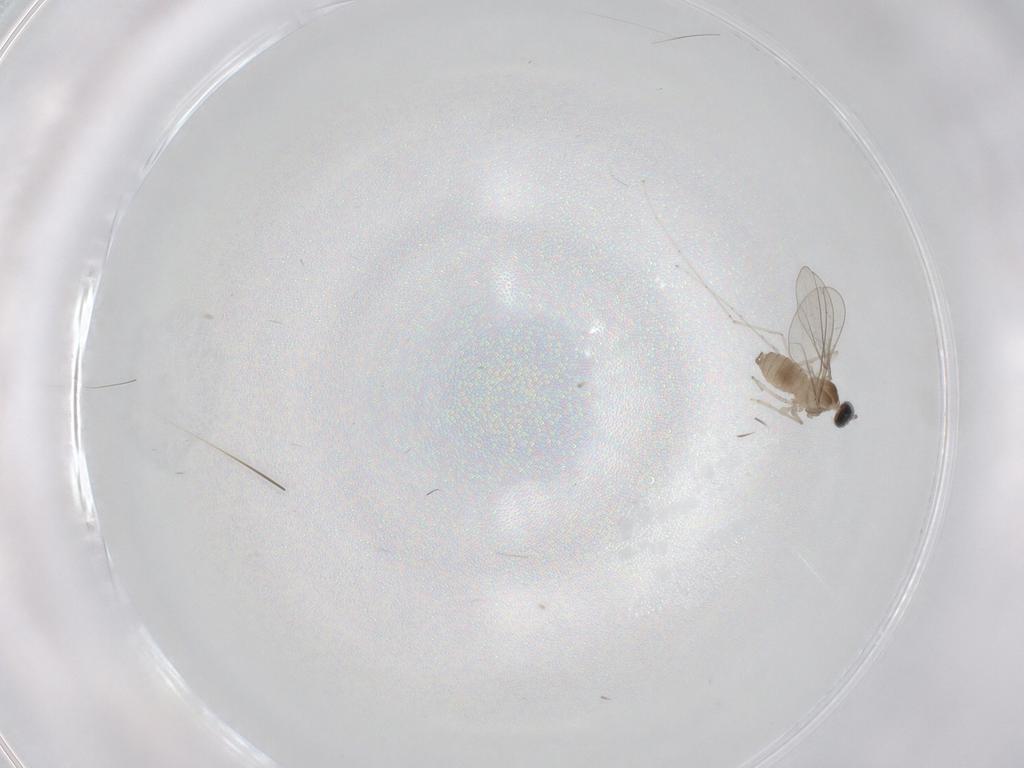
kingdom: Animalia
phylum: Arthropoda
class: Insecta
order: Diptera
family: Cecidomyiidae
